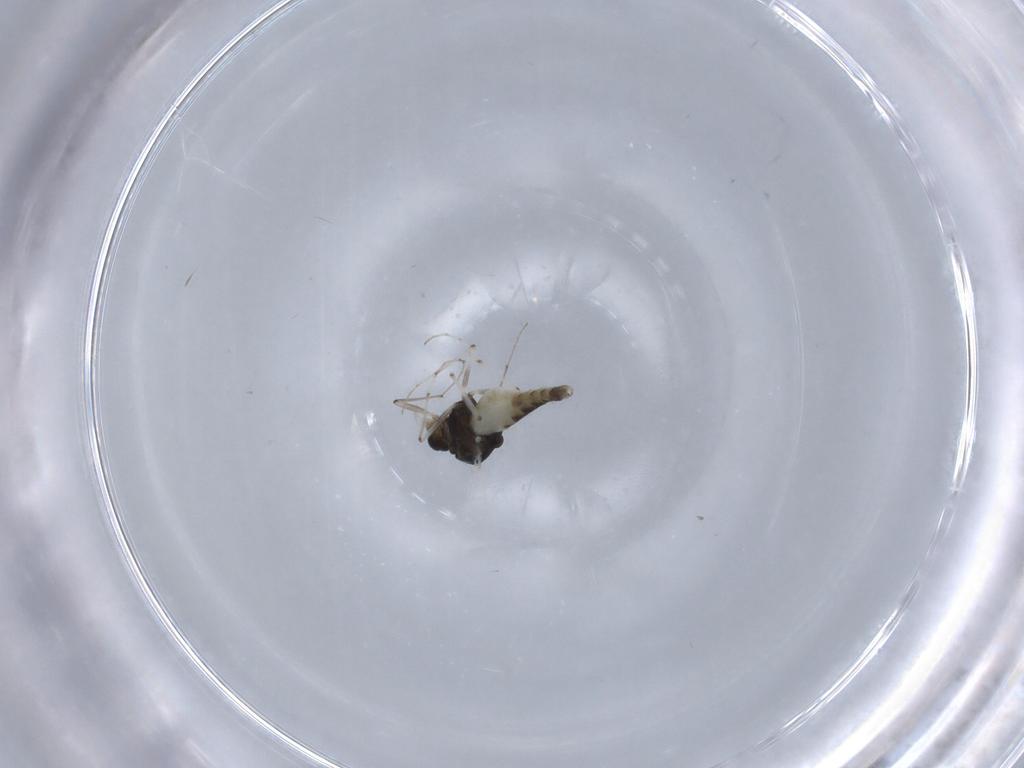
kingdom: Animalia
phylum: Arthropoda
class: Insecta
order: Diptera
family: Chironomidae
